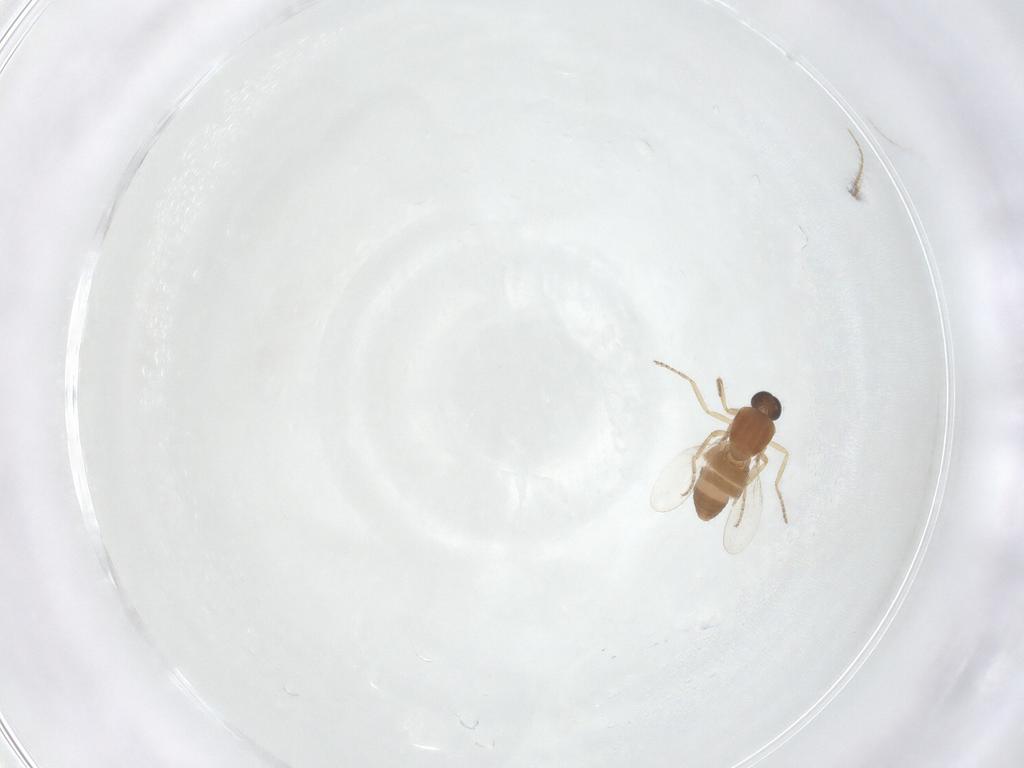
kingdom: Animalia
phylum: Arthropoda
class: Insecta
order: Diptera
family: Ceratopogonidae
